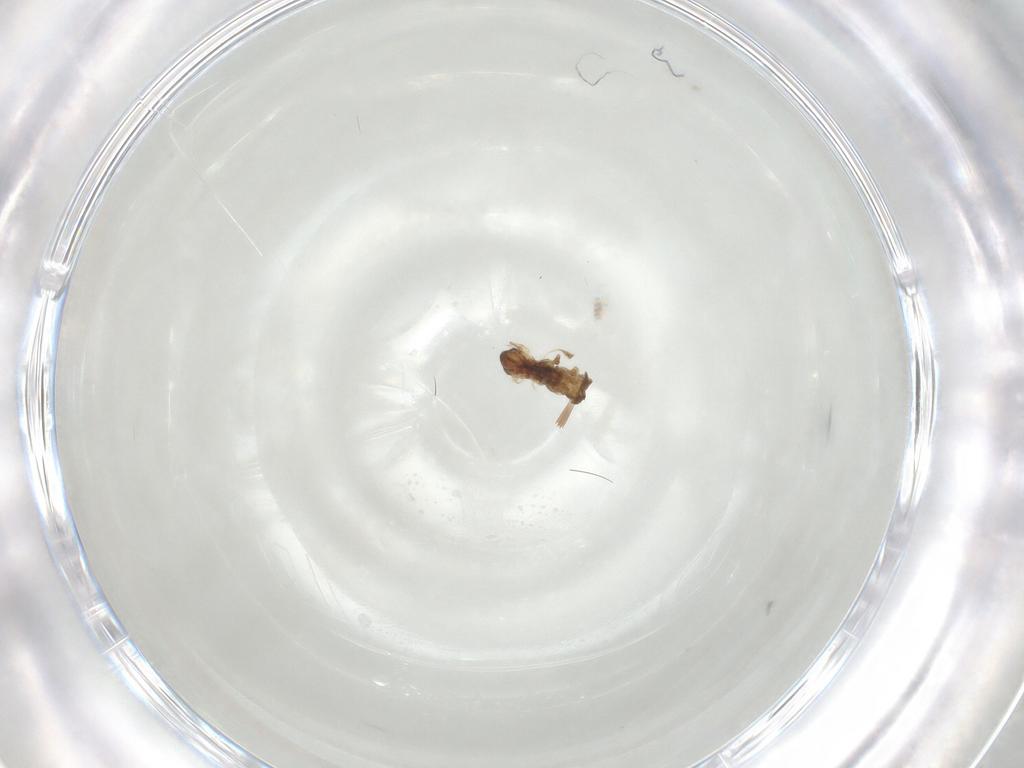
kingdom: Animalia
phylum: Arthropoda
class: Insecta
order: Diptera
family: Cecidomyiidae
